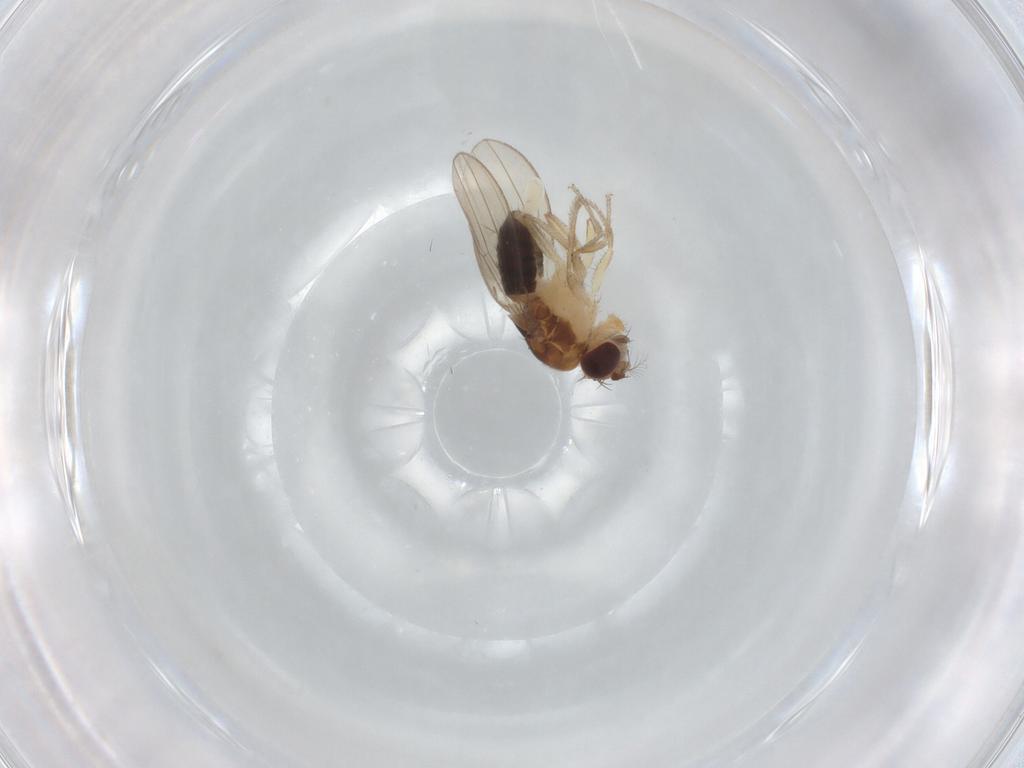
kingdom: Animalia
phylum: Arthropoda
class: Insecta
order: Diptera
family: Drosophilidae
